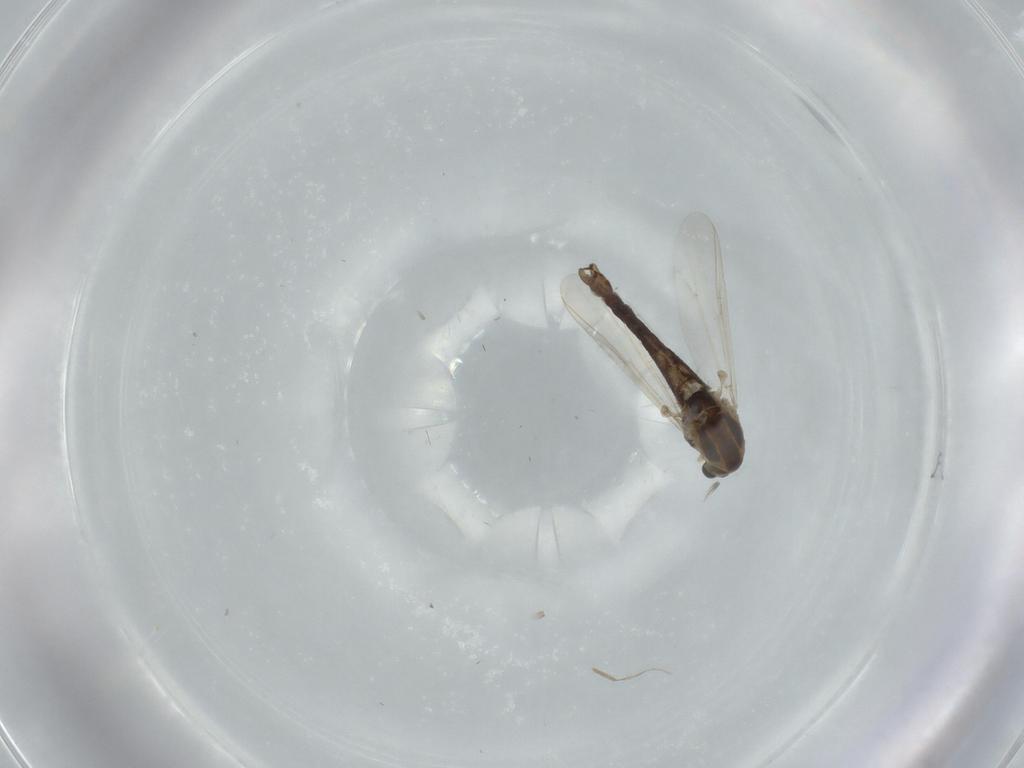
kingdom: Animalia
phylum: Arthropoda
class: Insecta
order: Diptera
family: Chironomidae
